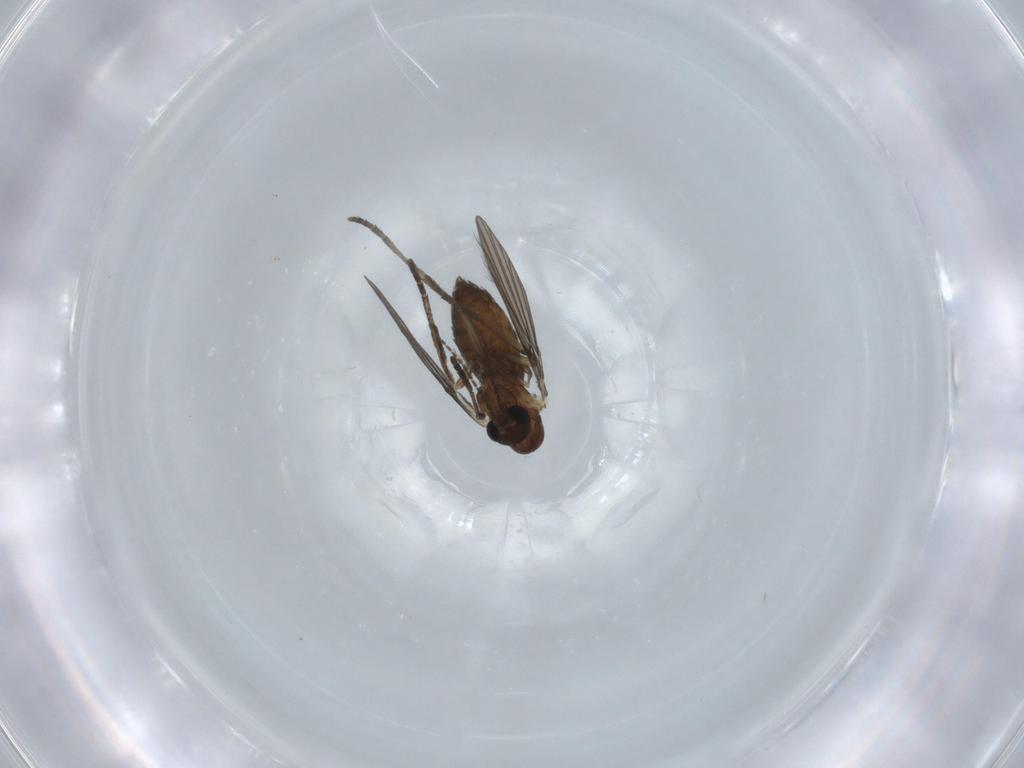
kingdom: Animalia
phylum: Arthropoda
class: Insecta
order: Diptera
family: Psychodidae
